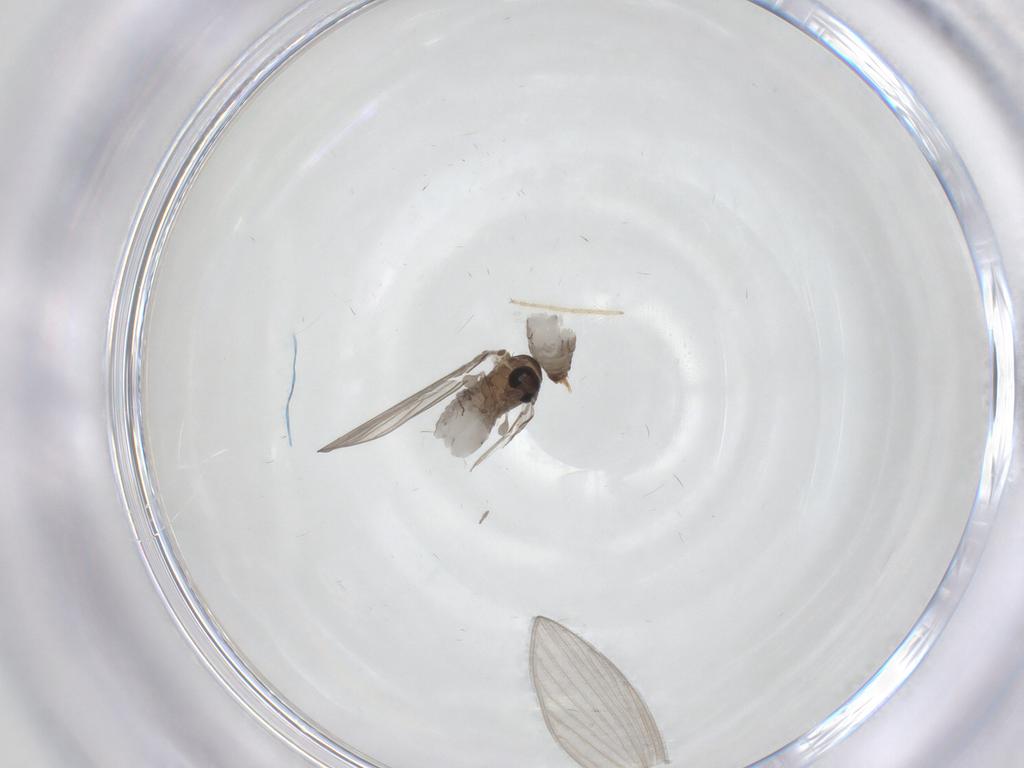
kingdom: Animalia
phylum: Arthropoda
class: Insecta
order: Diptera
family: Psychodidae
